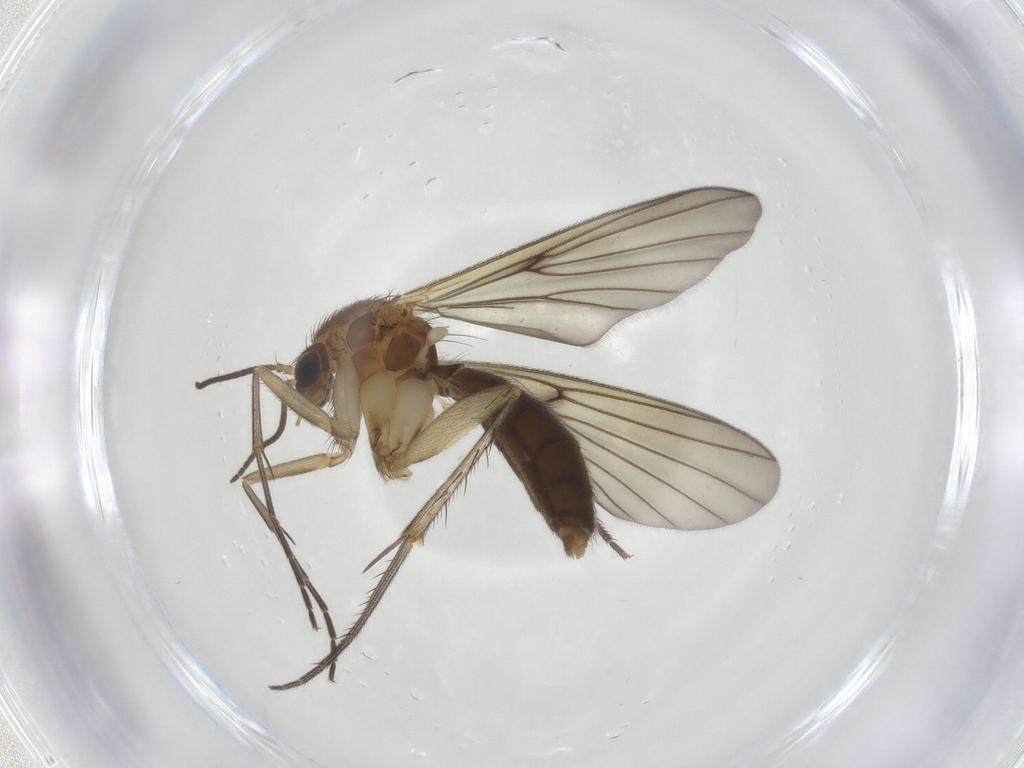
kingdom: Animalia
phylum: Arthropoda
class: Insecta
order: Diptera
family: Mycetophilidae
